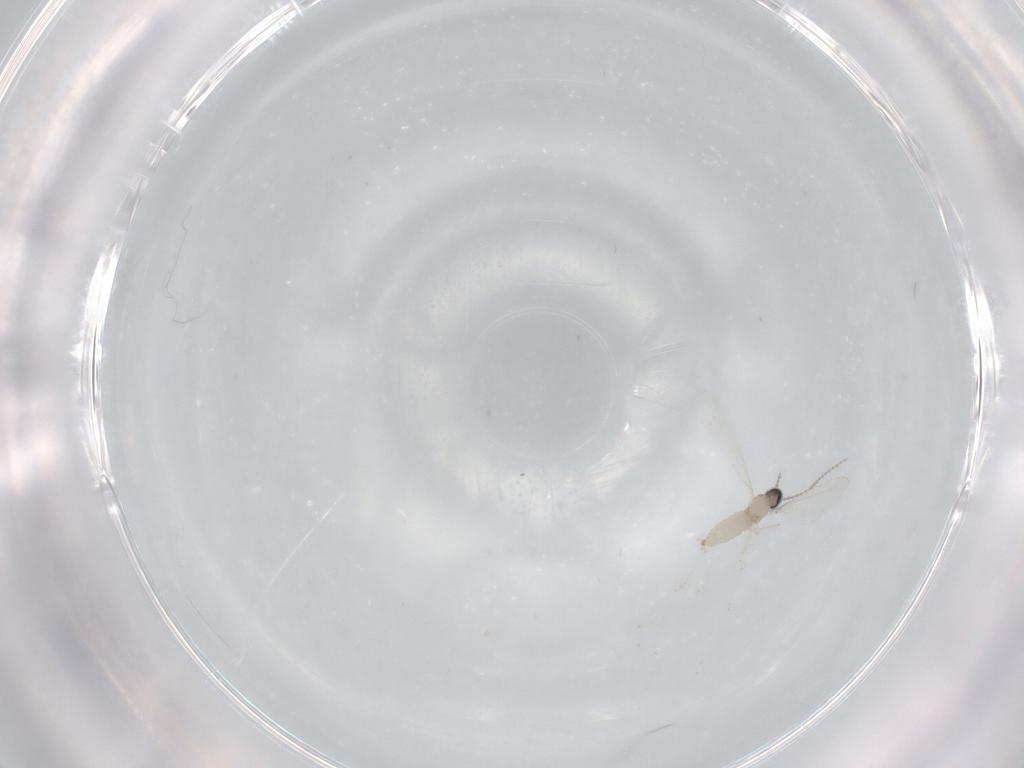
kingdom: Animalia
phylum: Arthropoda
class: Insecta
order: Diptera
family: Cecidomyiidae
